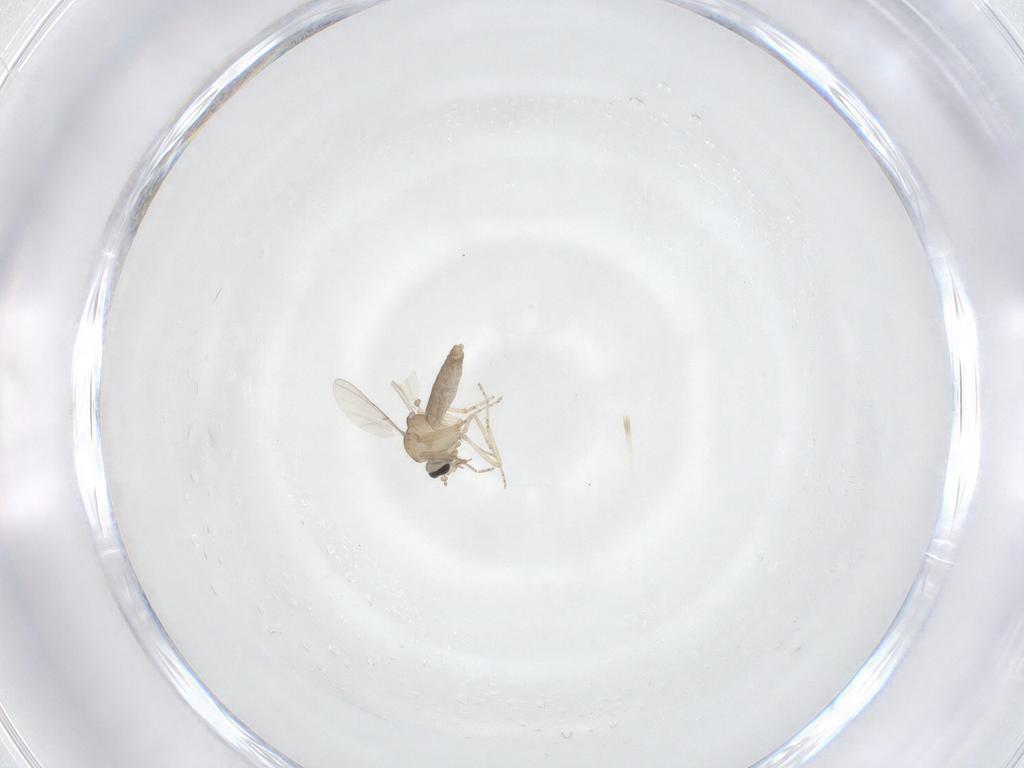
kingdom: Animalia
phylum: Arthropoda
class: Insecta
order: Diptera
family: Ceratopogonidae
